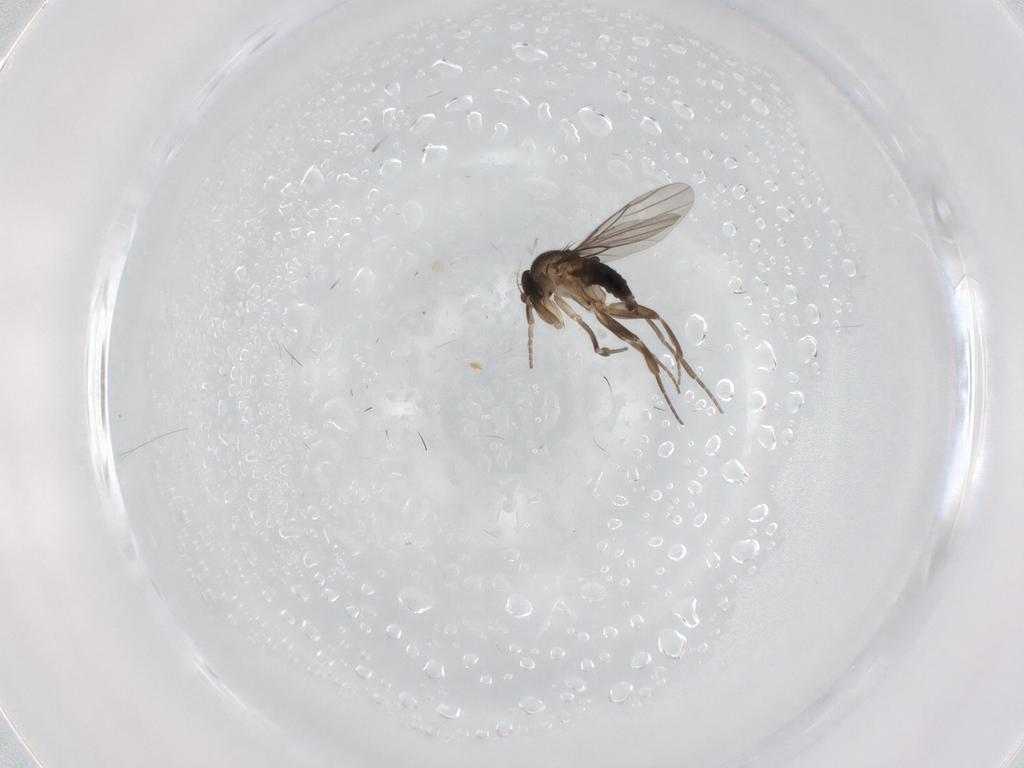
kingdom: Animalia
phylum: Arthropoda
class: Insecta
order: Diptera
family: Phoridae
